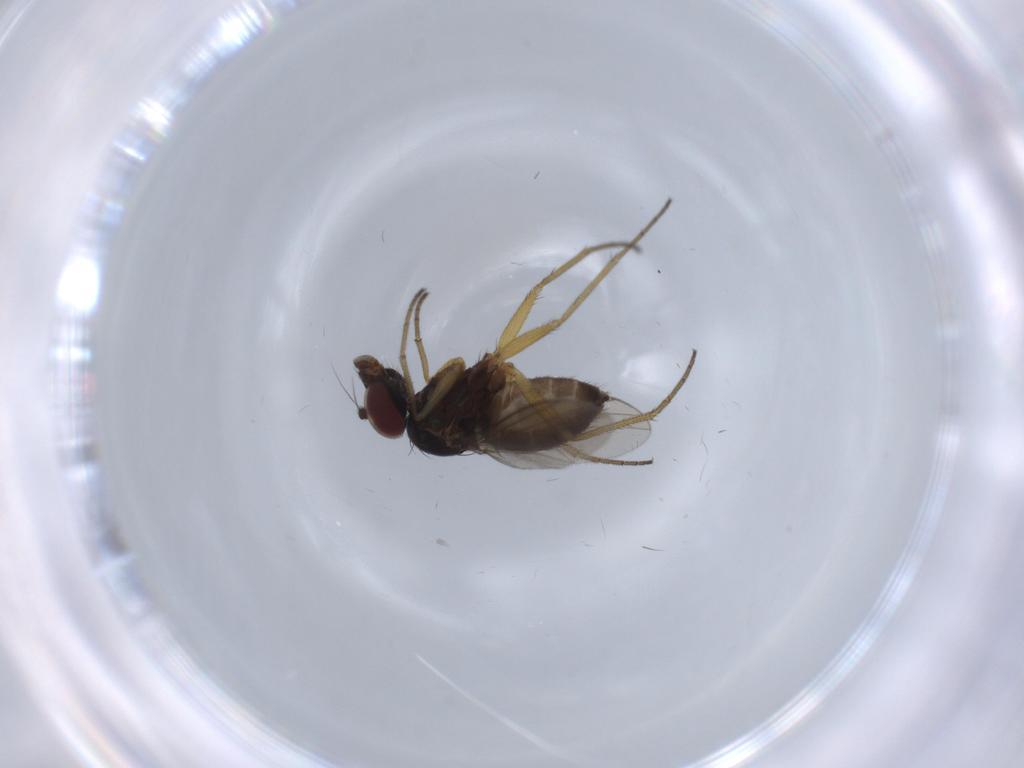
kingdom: Animalia
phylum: Arthropoda
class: Insecta
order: Diptera
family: Dolichopodidae
